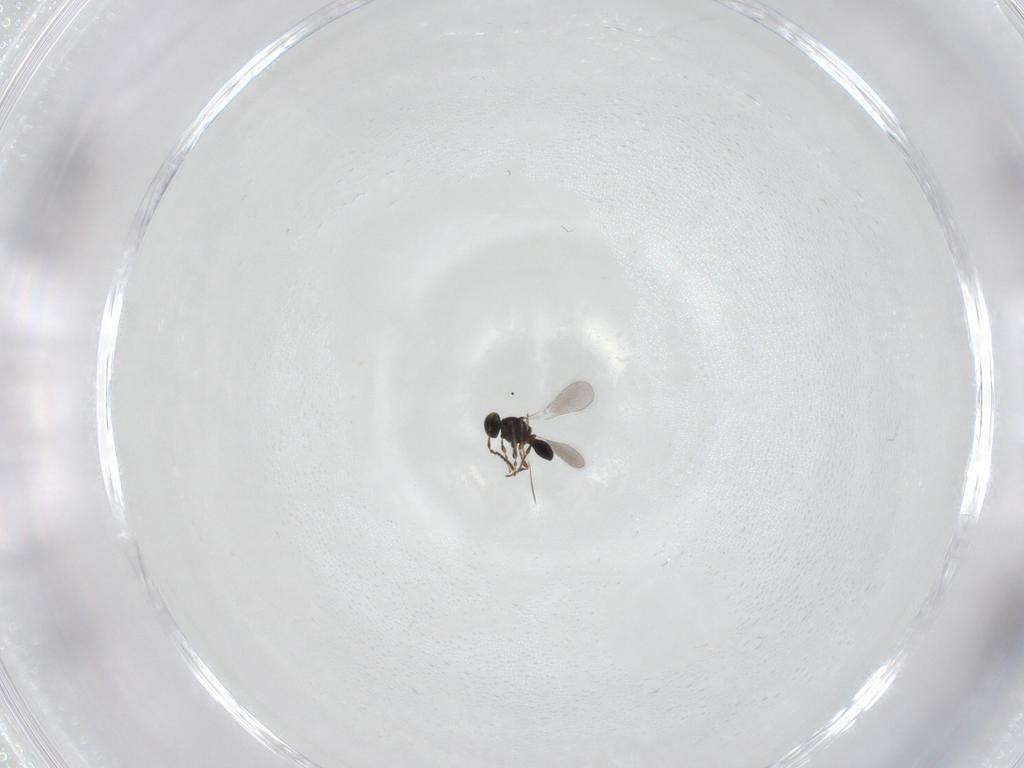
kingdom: Animalia
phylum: Arthropoda
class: Insecta
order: Hymenoptera
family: Platygastridae
